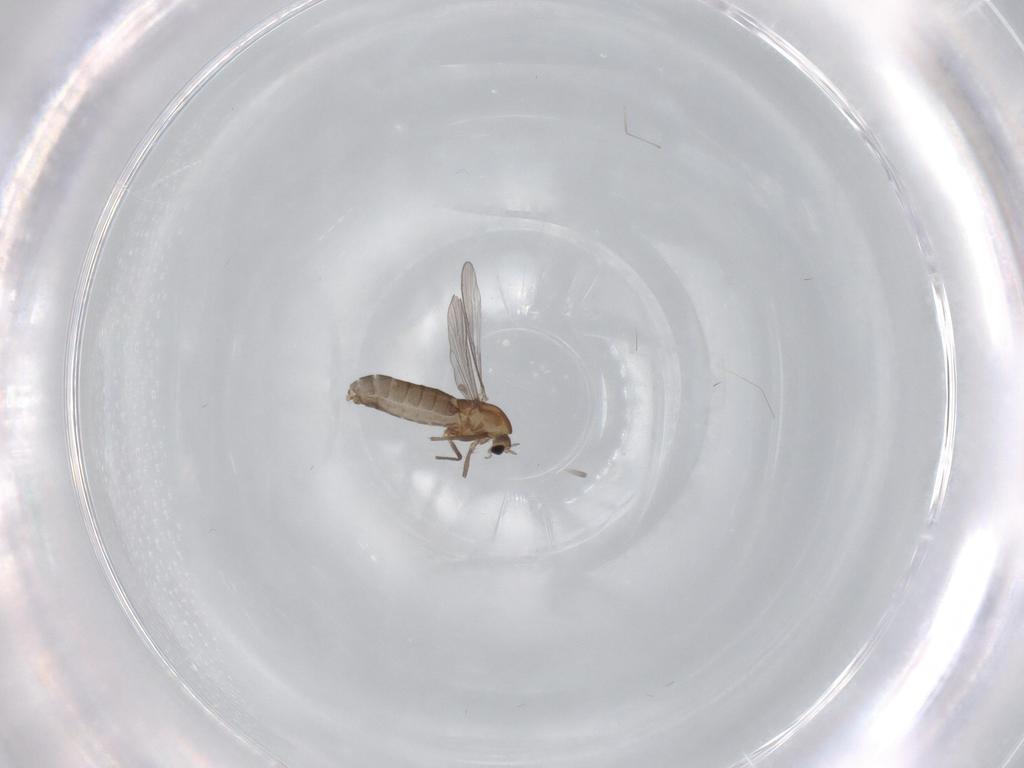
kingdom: Animalia
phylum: Arthropoda
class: Insecta
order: Diptera
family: Chironomidae
